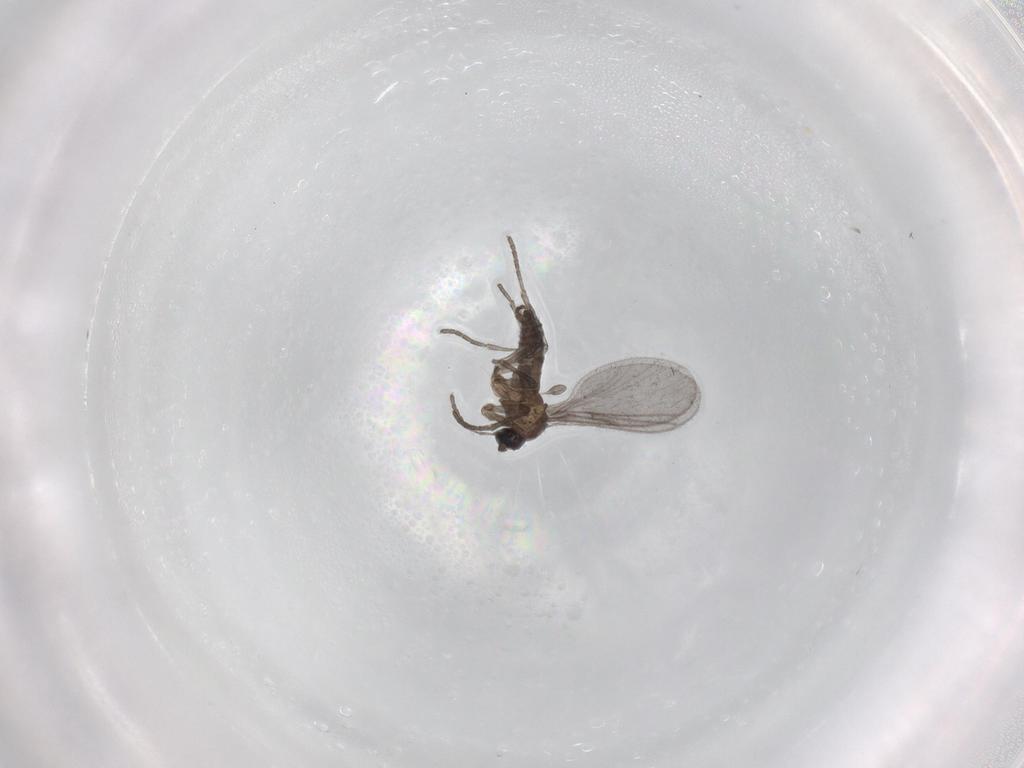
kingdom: Animalia
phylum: Arthropoda
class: Insecta
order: Diptera
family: Sciaridae
